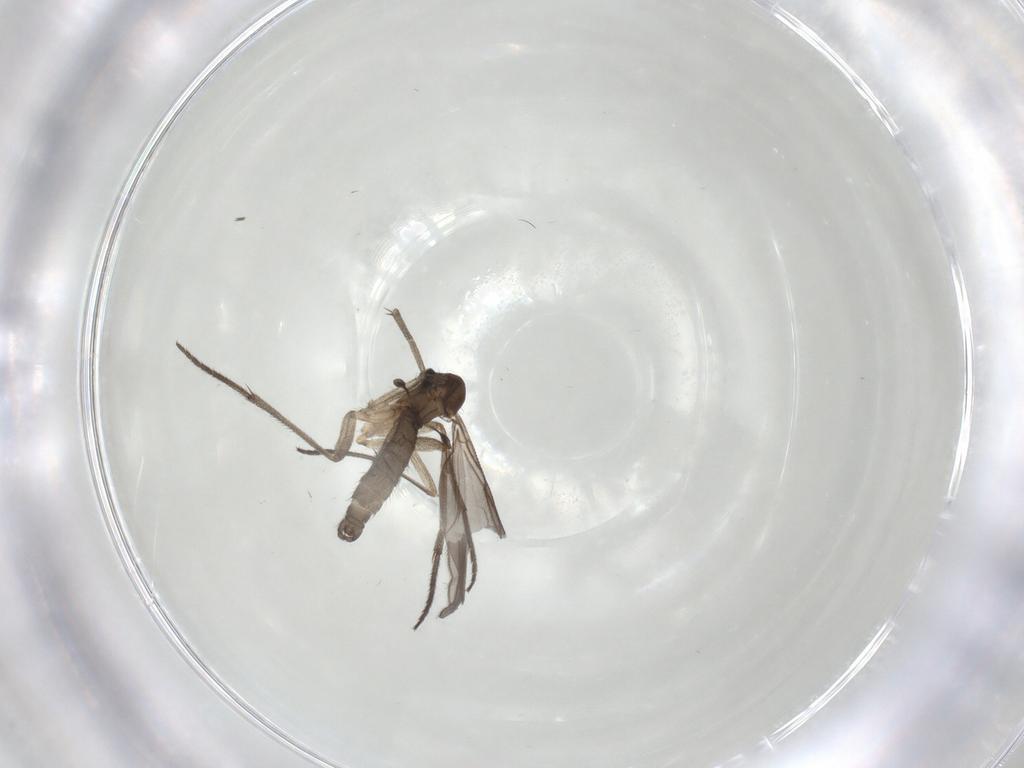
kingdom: Animalia
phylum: Arthropoda
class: Insecta
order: Diptera
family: Sciaridae
